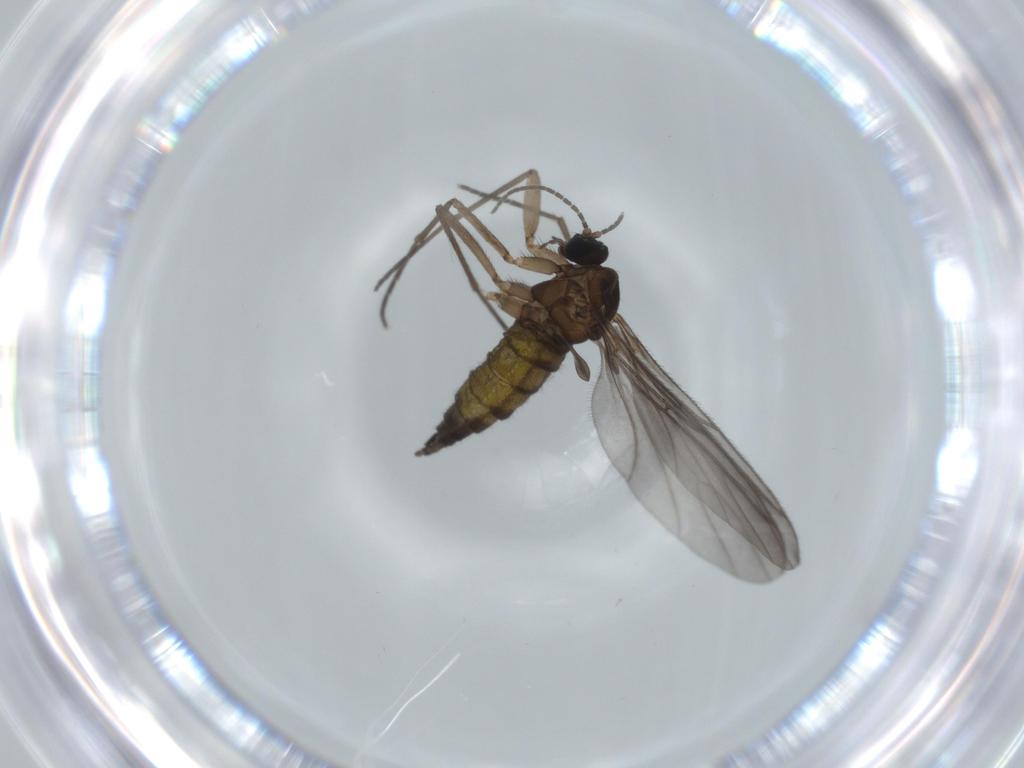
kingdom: Animalia
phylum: Arthropoda
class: Insecta
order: Diptera
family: Sciaridae
